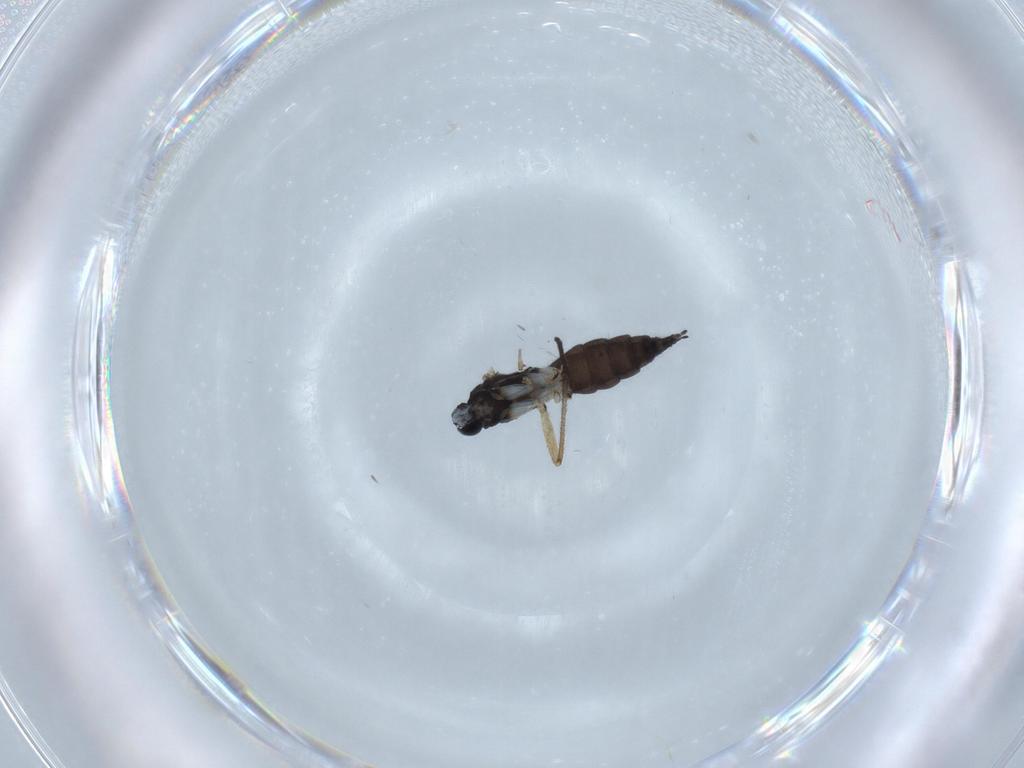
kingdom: Animalia
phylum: Arthropoda
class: Insecta
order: Diptera
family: Sciaridae
